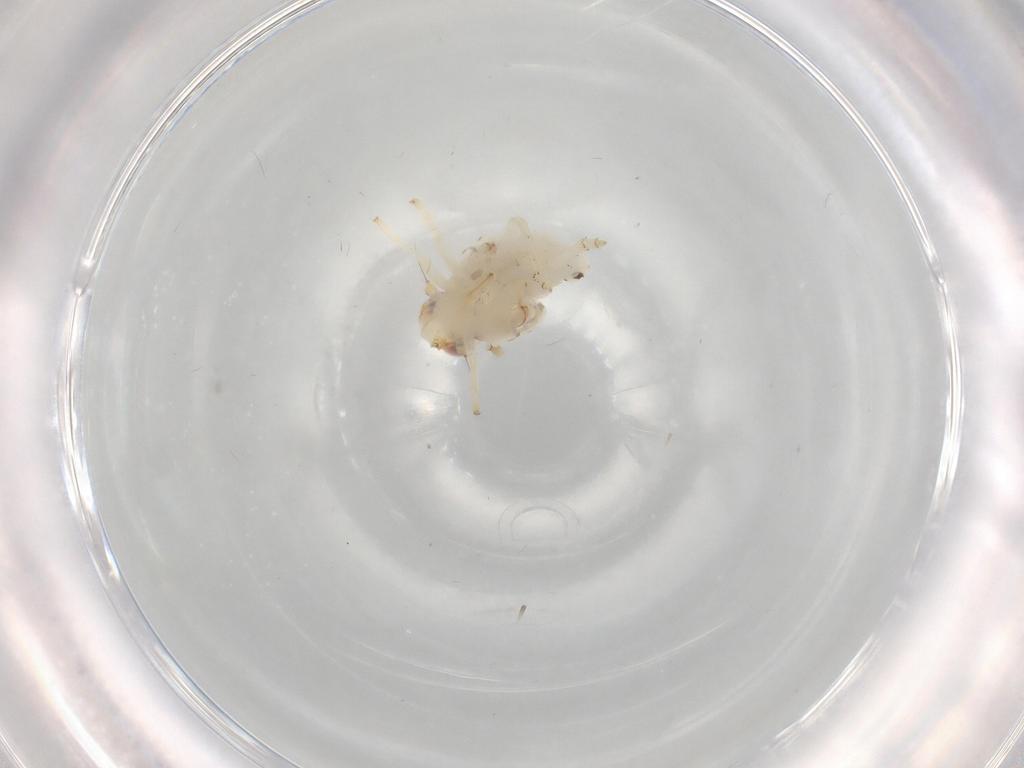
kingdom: Animalia
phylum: Arthropoda
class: Insecta
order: Hemiptera
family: Nogodinidae
